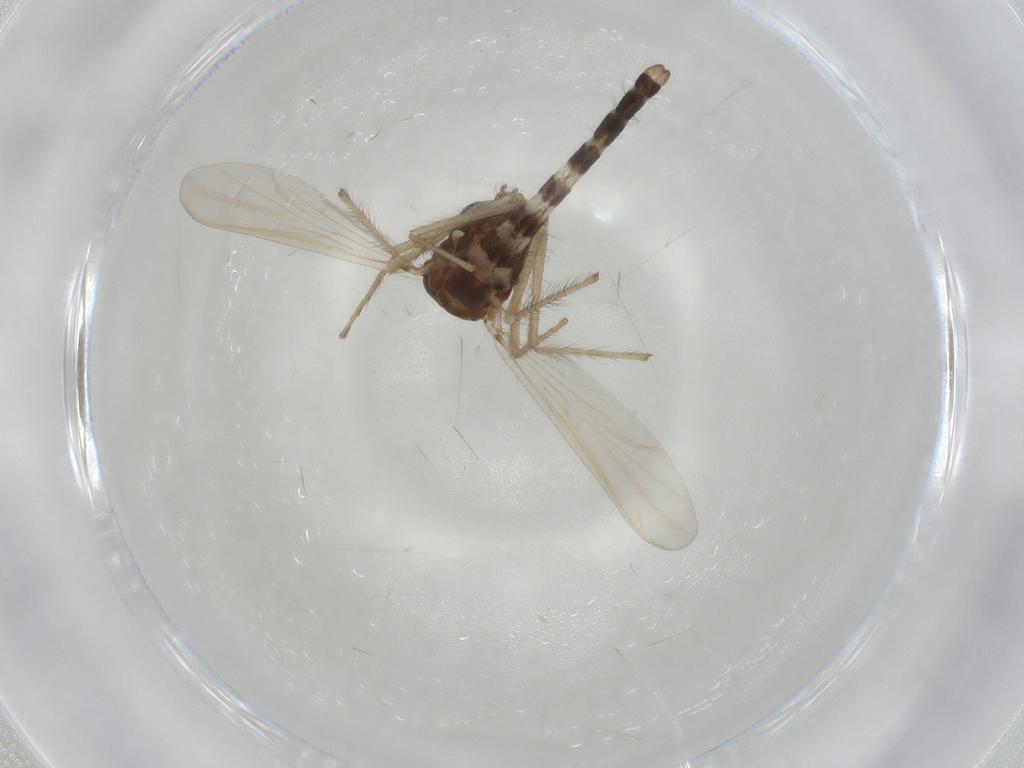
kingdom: Animalia
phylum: Arthropoda
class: Insecta
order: Diptera
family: Chironomidae
